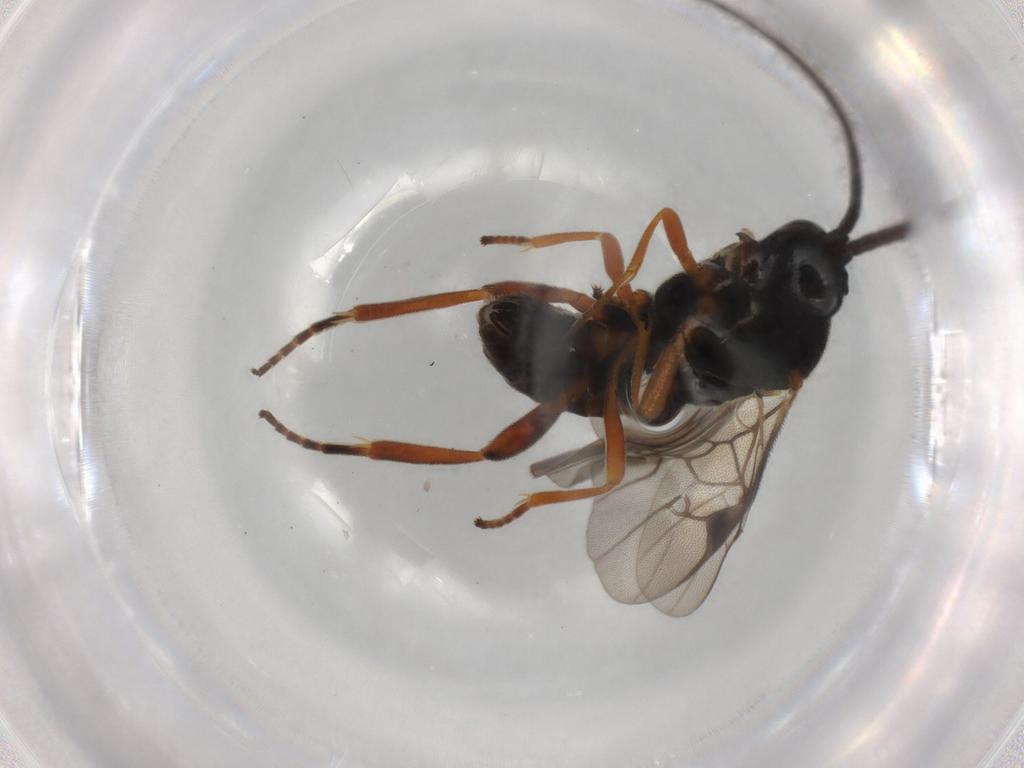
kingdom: Animalia
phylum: Arthropoda
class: Insecta
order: Hymenoptera
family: Braconidae
